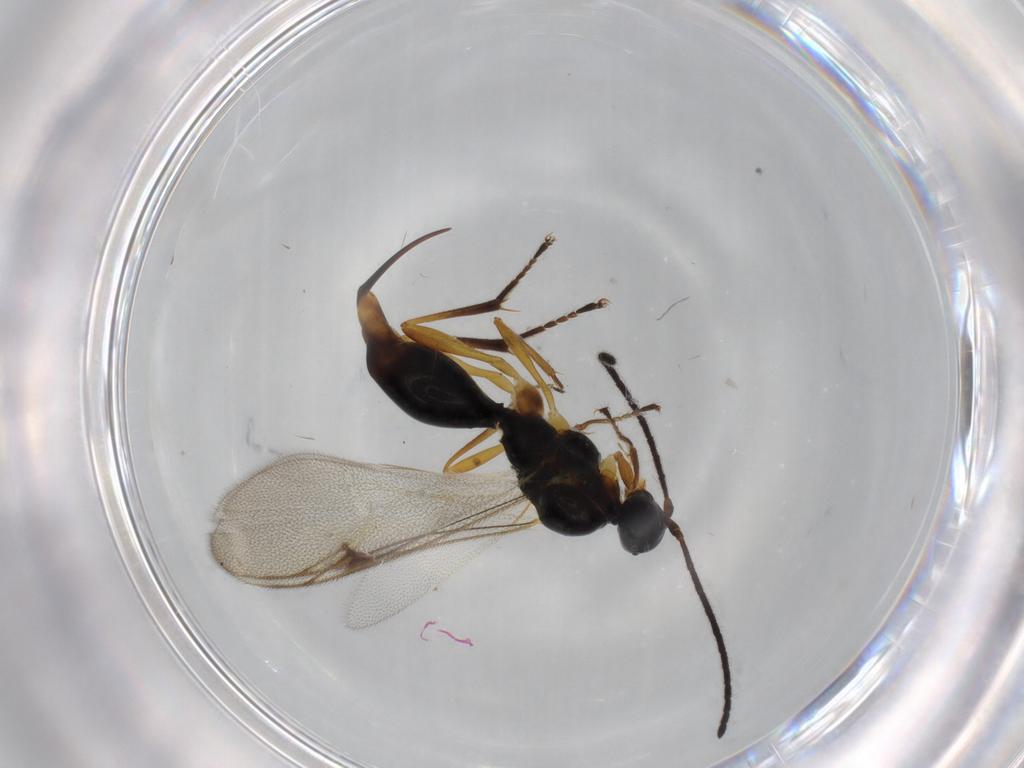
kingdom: Animalia
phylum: Arthropoda
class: Insecta
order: Hymenoptera
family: Proctotrupidae
